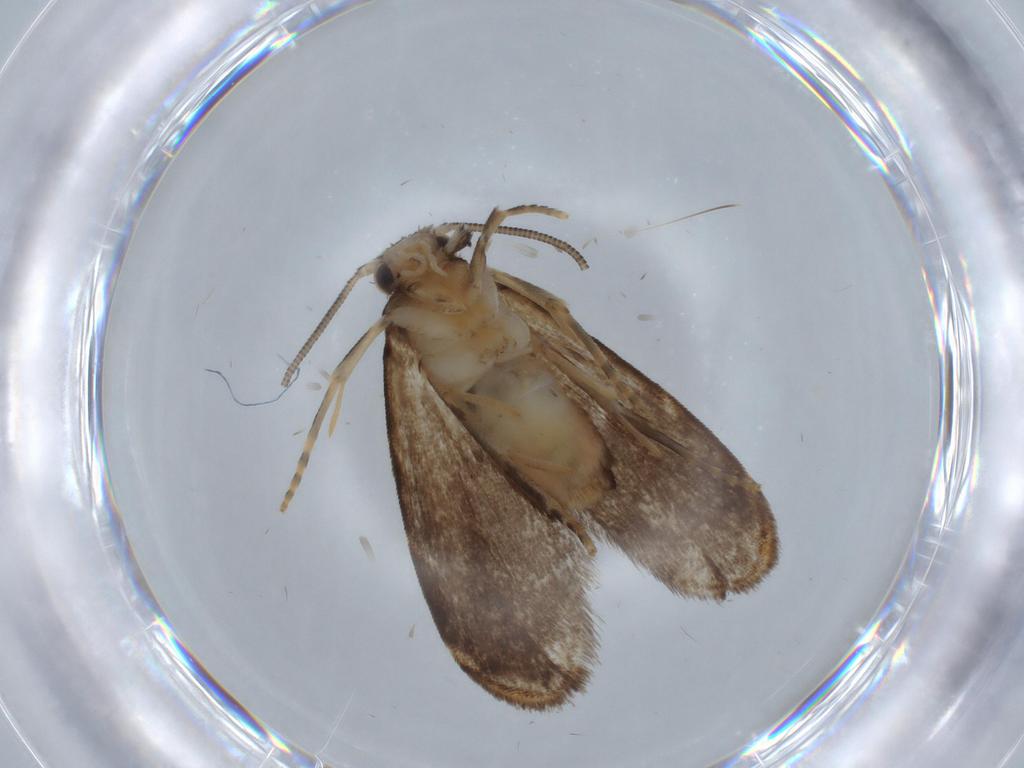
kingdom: Animalia
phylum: Arthropoda
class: Insecta
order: Lepidoptera
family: Dryadaulidae
